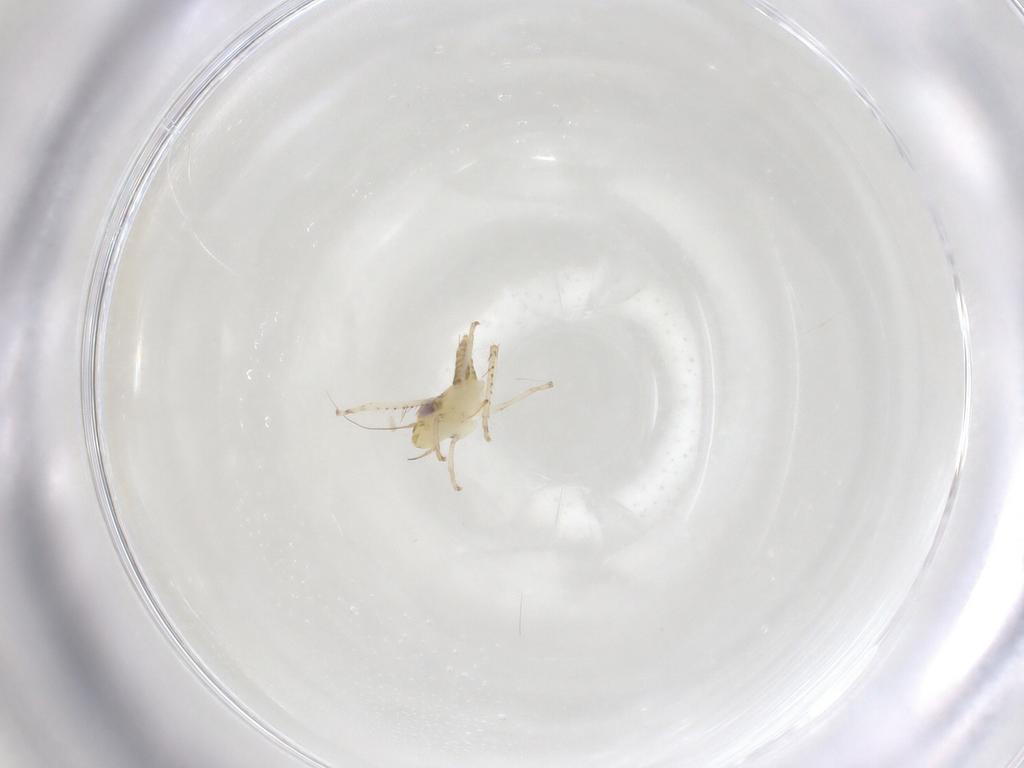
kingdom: Animalia
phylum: Arthropoda
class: Insecta
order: Hemiptera
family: Cicadellidae
